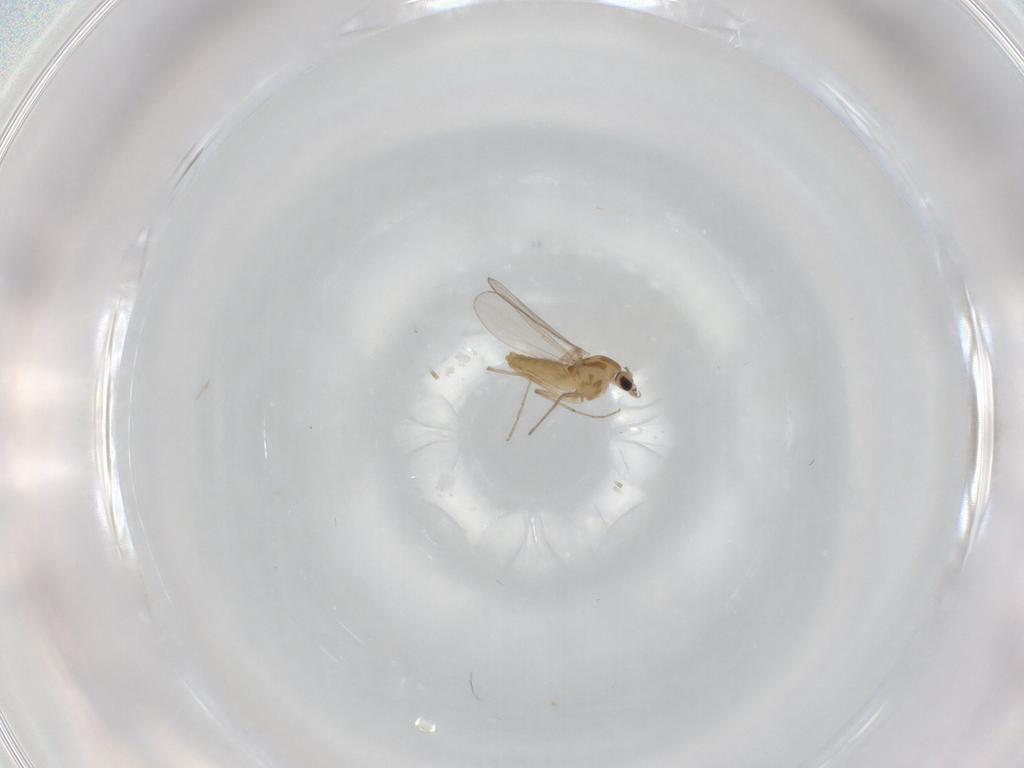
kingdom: Animalia
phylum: Arthropoda
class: Insecta
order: Diptera
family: Chironomidae
